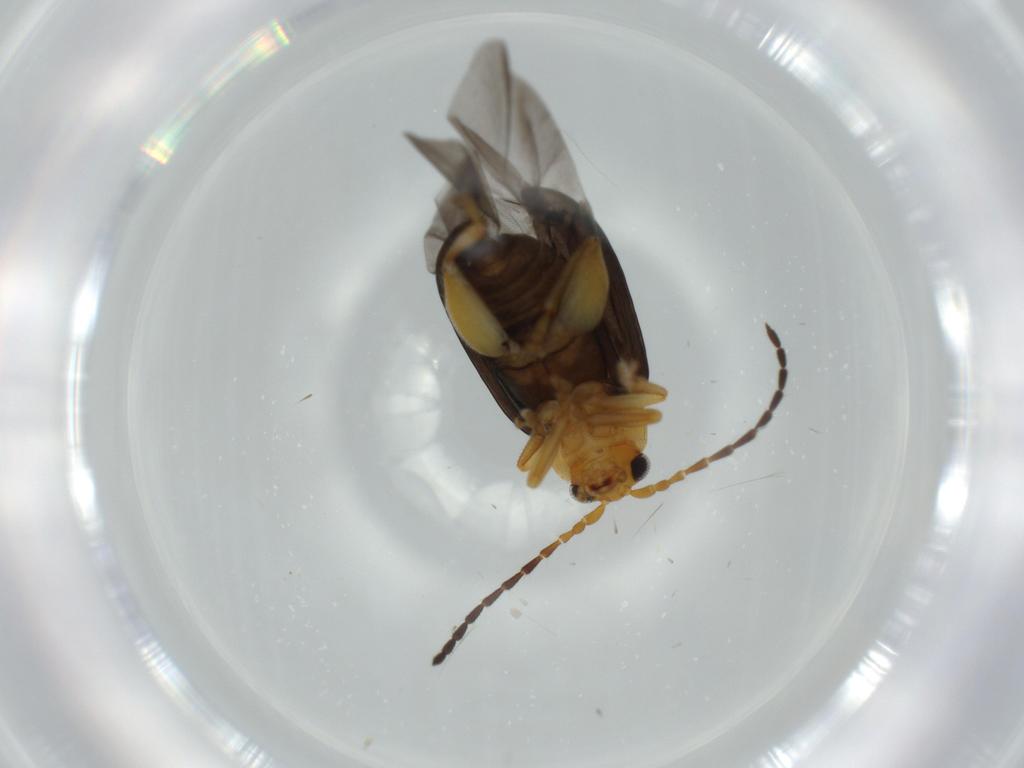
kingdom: Animalia
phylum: Arthropoda
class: Insecta
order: Coleoptera
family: Chrysomelidae
